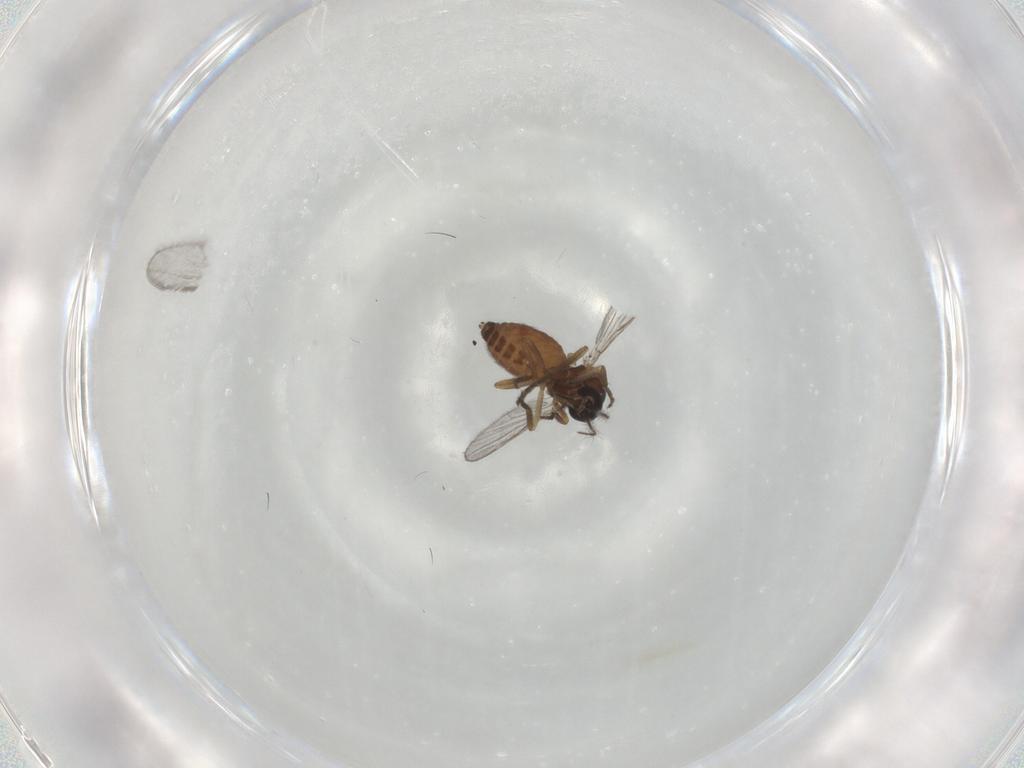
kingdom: Animalia
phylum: Arthropoda
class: Insecta
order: Diptera
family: Ceratopogonidae
